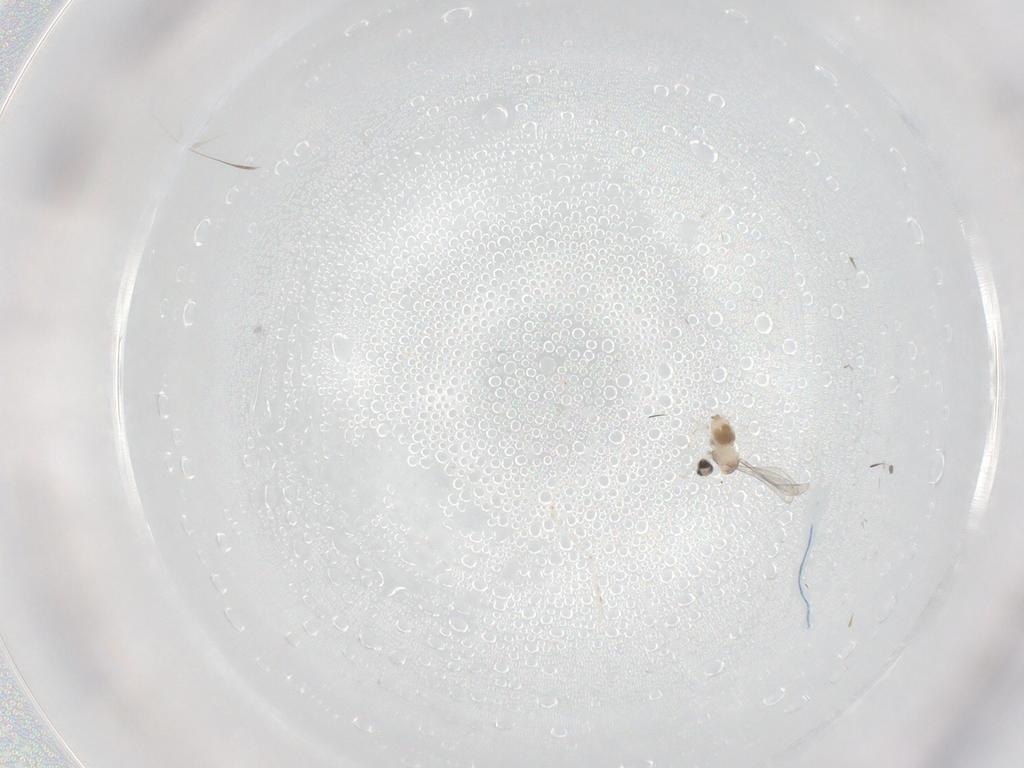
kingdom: Animalia
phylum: Arthropoda
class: Insecta
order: Diptera
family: Cecidomyiidae
